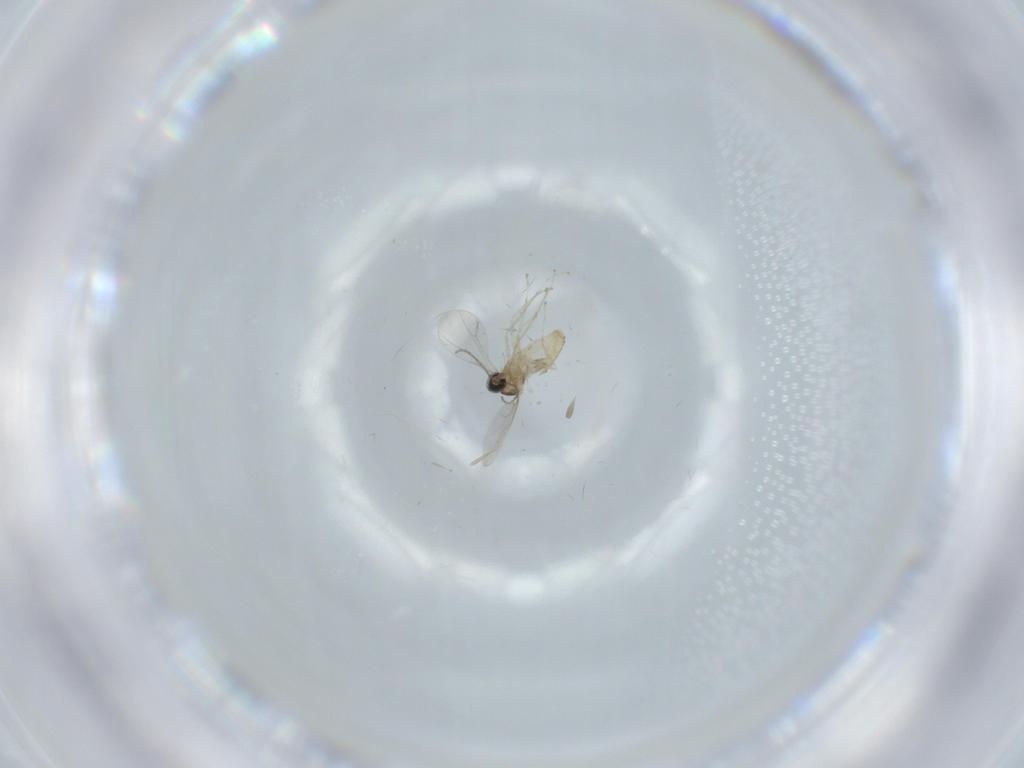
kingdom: Animalia
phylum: Arthropoda
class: Insecta
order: Diptera
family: Cecidomyiidae
